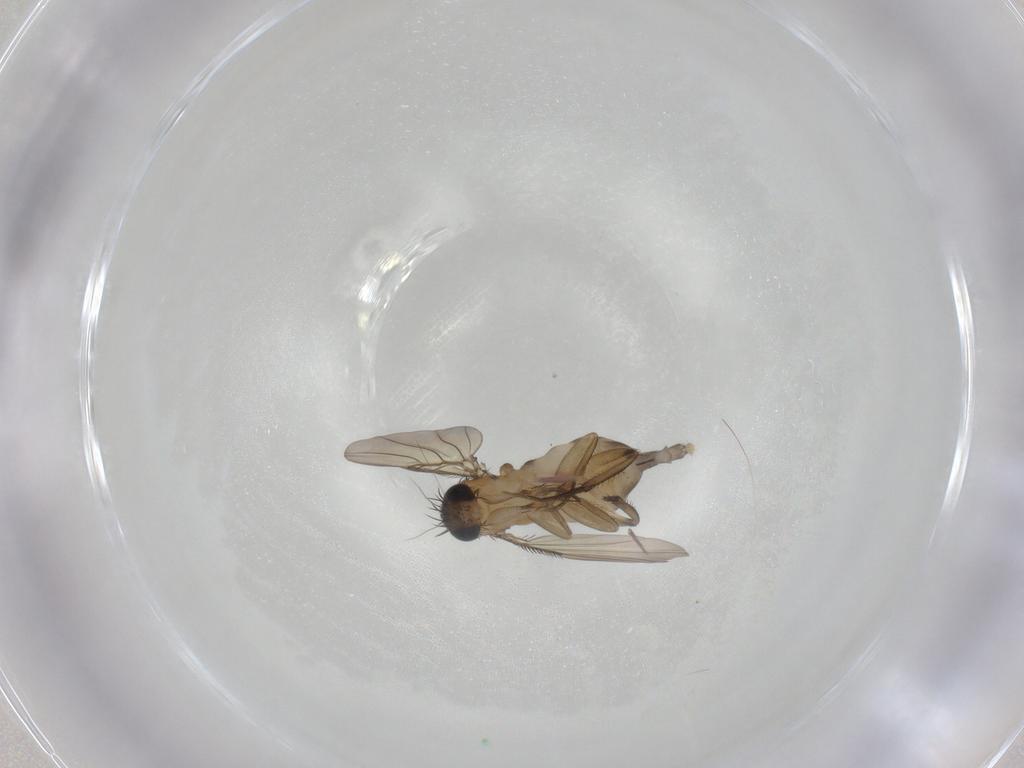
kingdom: Animalia
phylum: Arthropoda
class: Insecta
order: Diptera
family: Phoridae
